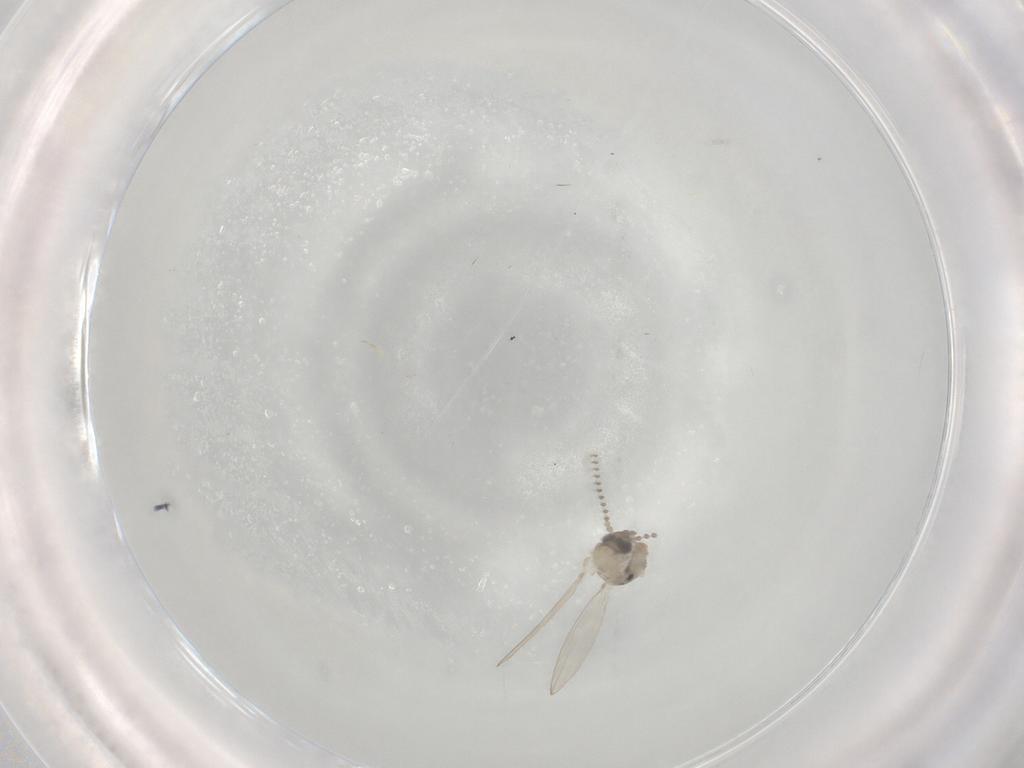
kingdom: Animalia
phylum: Arthropoda
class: Insecta
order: Diptera
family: Psychodidae
